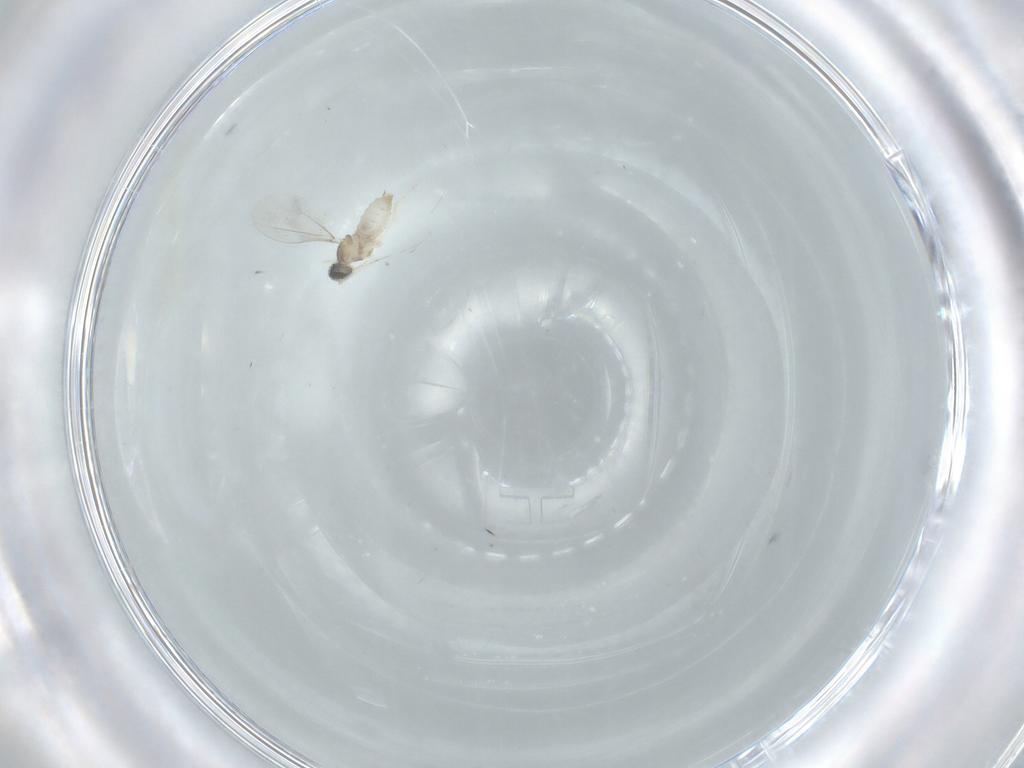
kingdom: Animalia
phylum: Arthropoda
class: Insecta
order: Diptera
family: Cecidomyiidae
